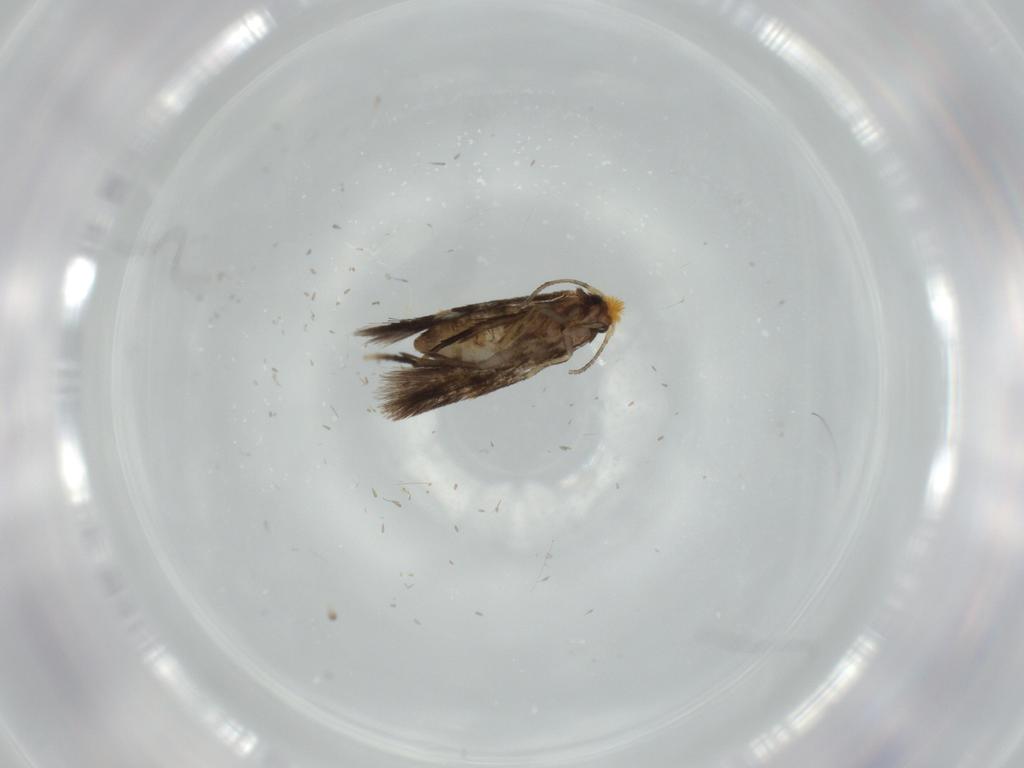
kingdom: Animalia
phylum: Arthropoda
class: Insecta
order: Lepidoptera
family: Nepticulidae
